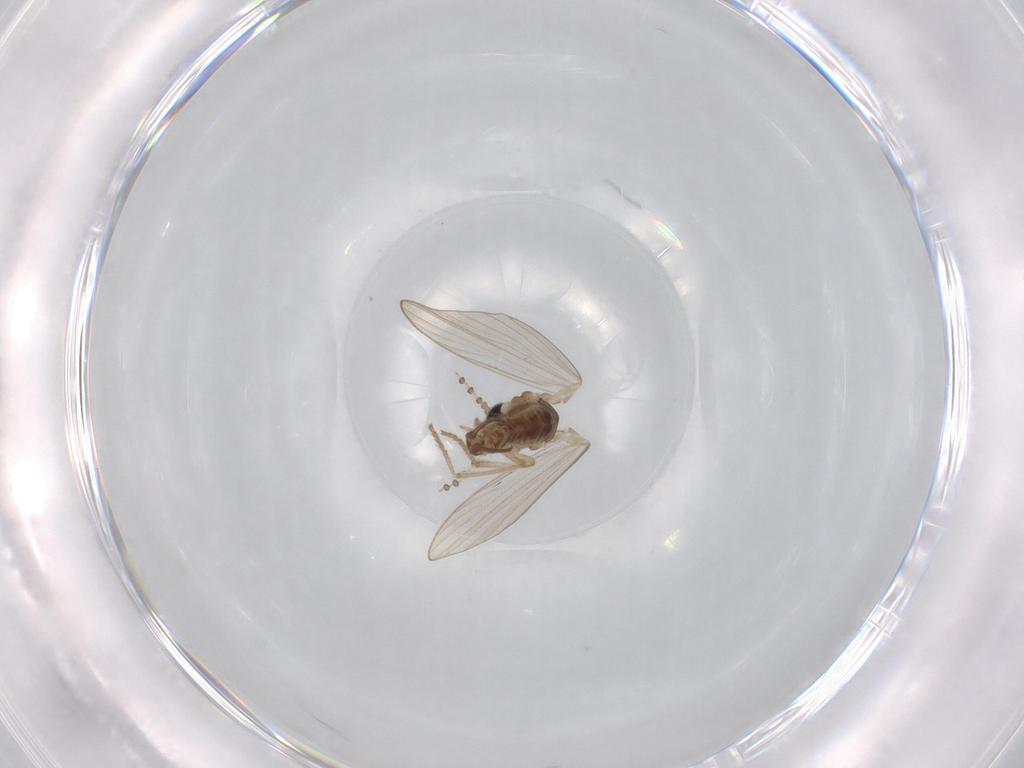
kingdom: Animalia
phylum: Arthropoda
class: Insecta
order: Diptera
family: Psychodidae
